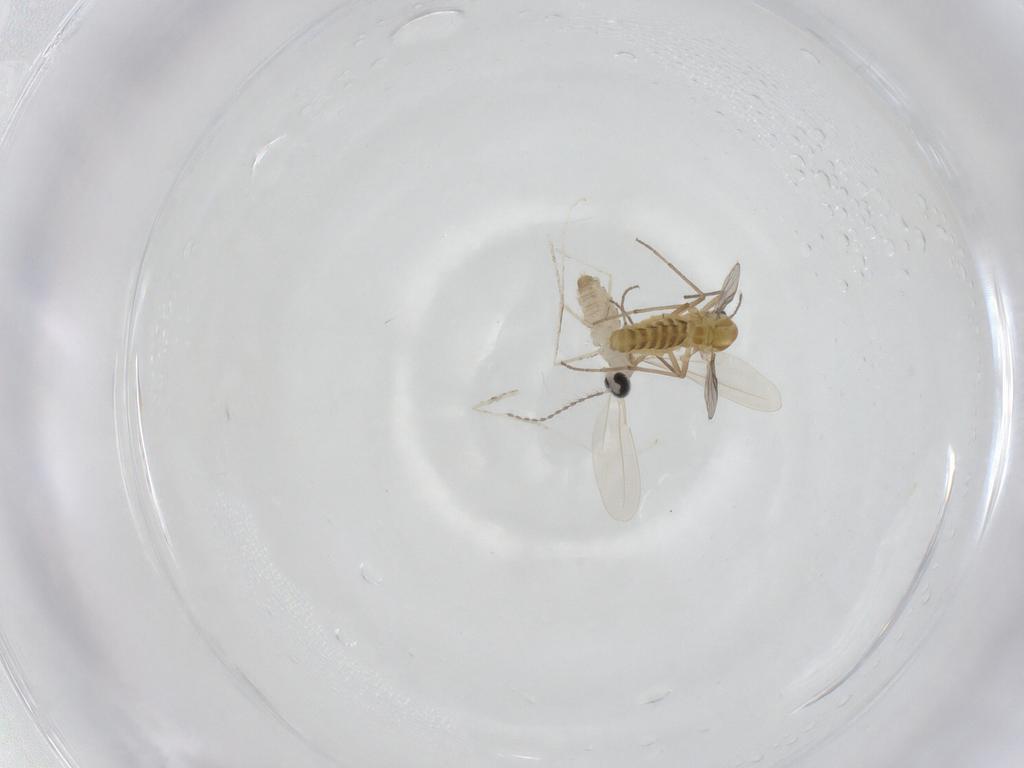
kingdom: Animalia
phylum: Arthropoda
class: Insecta
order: Diptera
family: Cecidomyiidae
